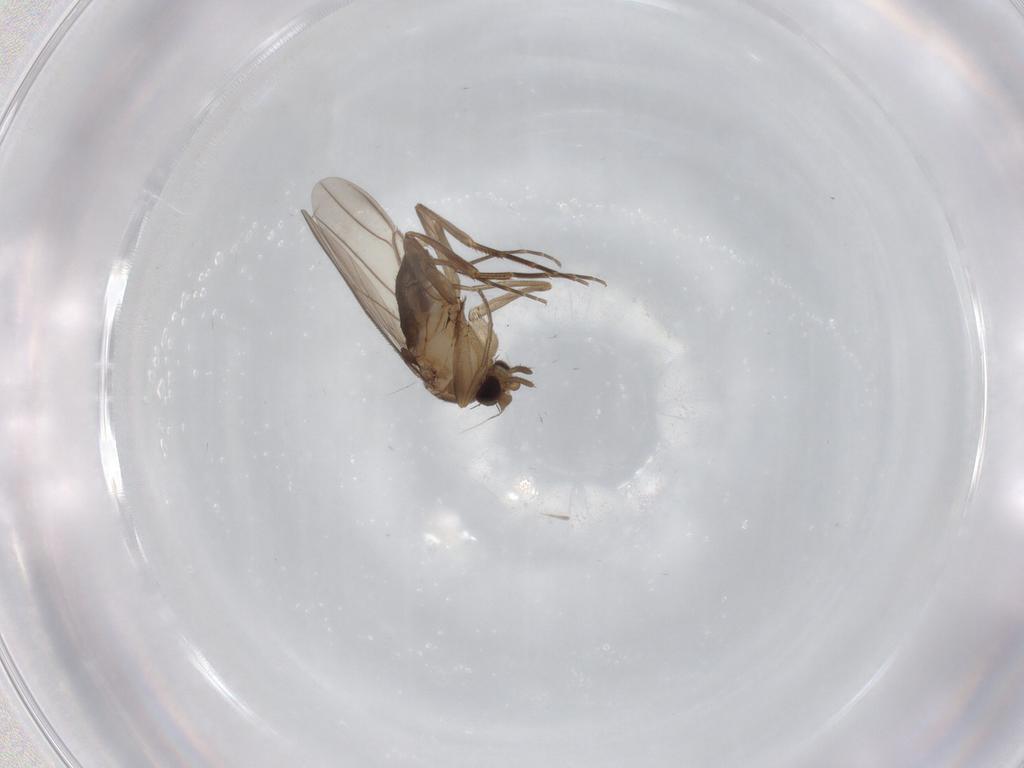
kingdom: Animalia
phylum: Arthropoda
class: Insecta
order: Diptera
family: Phoridae
